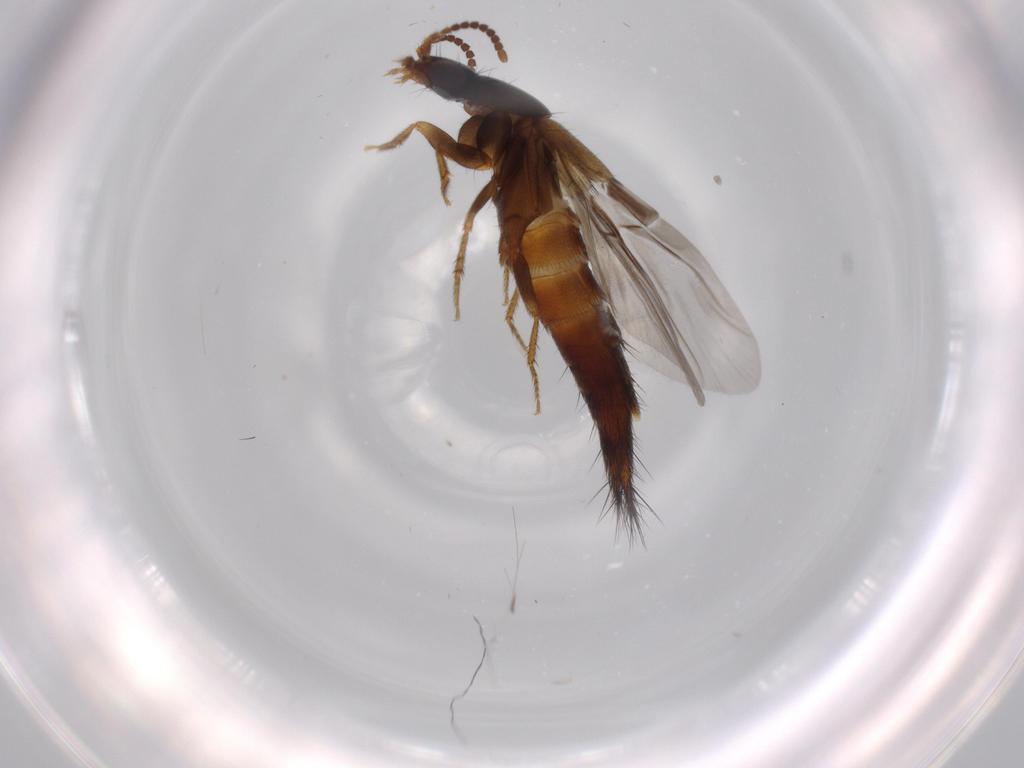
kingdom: Animalia
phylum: Arthropoda
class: Insecta
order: Coleoptera
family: Staphylinidae
